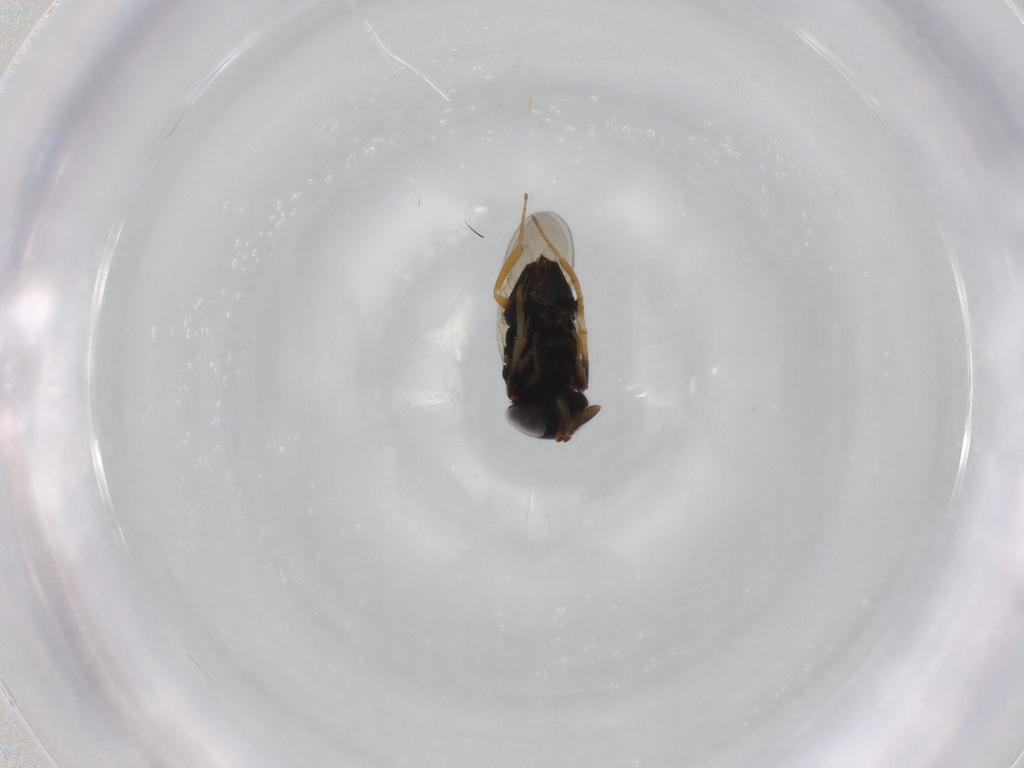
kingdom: Animalia
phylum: Arthropoda
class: Insecta
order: Hymenoptera
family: Encyrtidae
